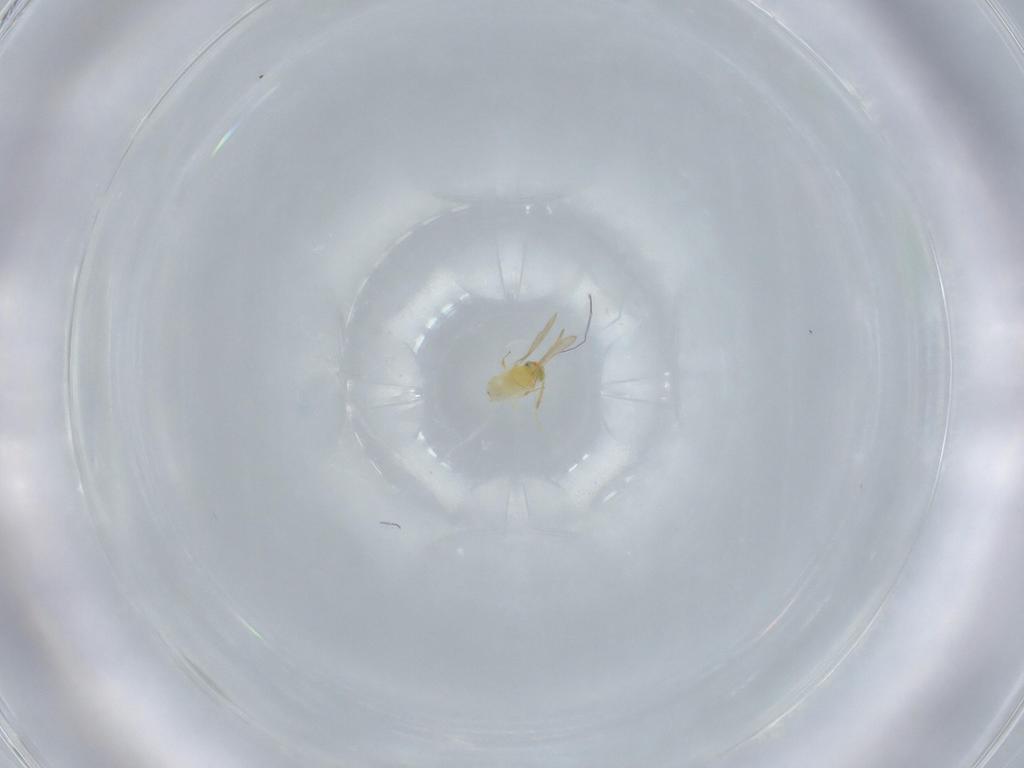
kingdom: Animalia
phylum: Arthropoda
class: Insecta
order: Hymenoptera
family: Aphelinidae
